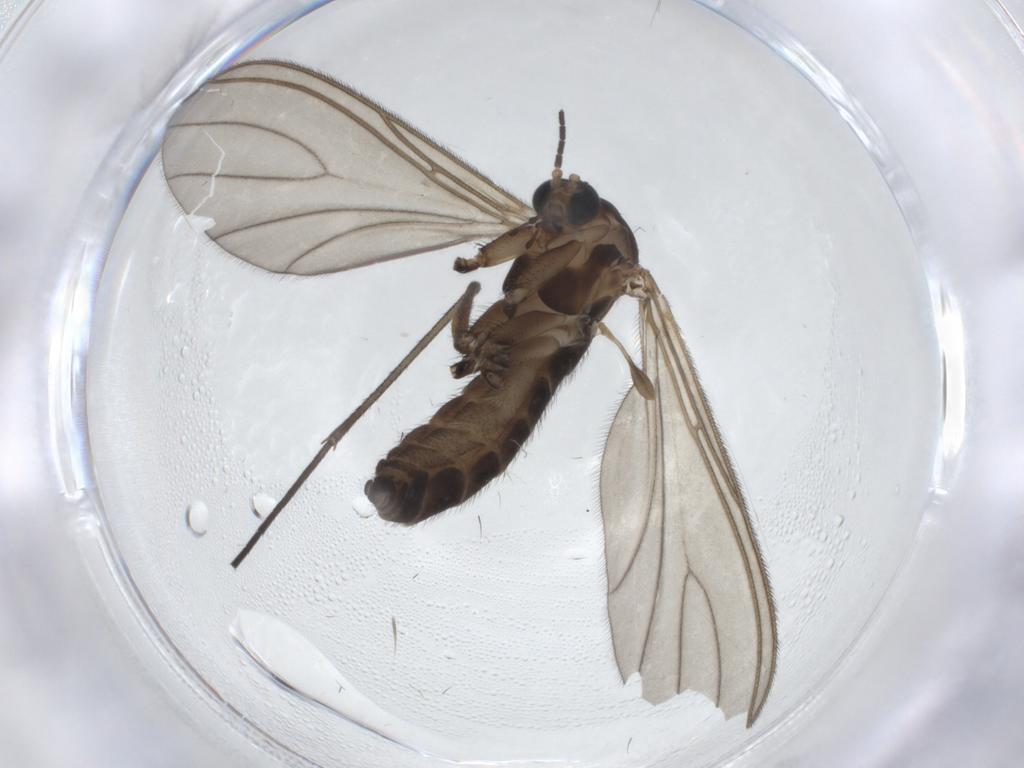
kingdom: Animalia
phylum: Arthropoda
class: Insecta
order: Diptera
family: Sciaridae
